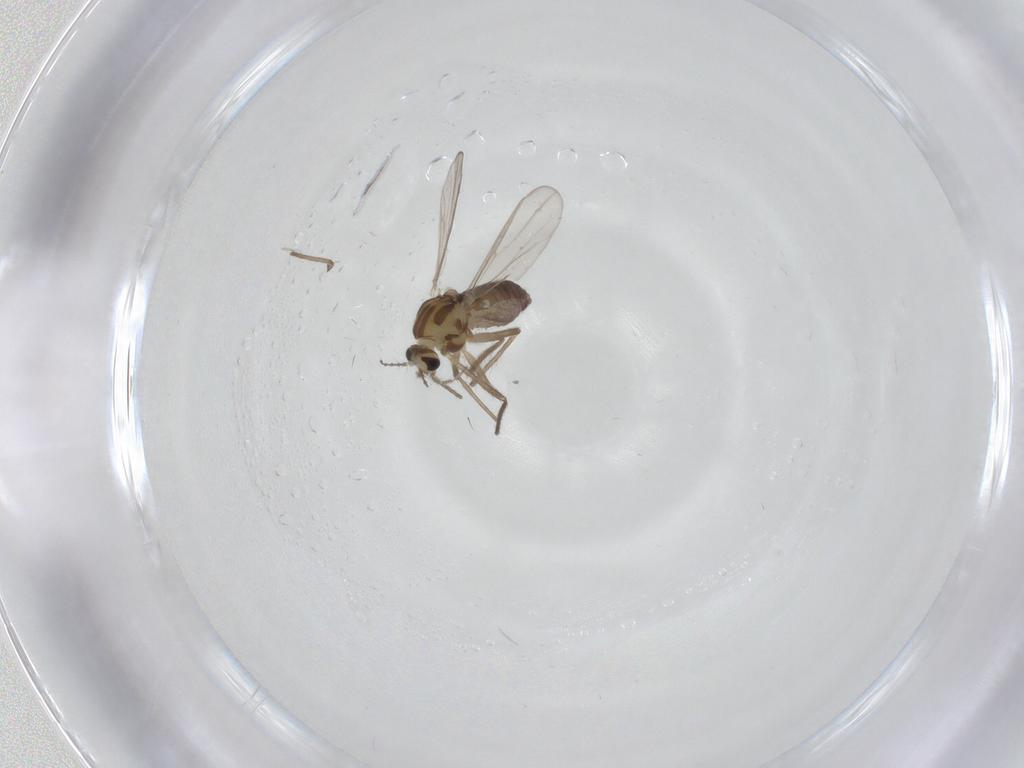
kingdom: Animalia
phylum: Arthropoda
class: Insecta
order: Diptera
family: Chironomidae
